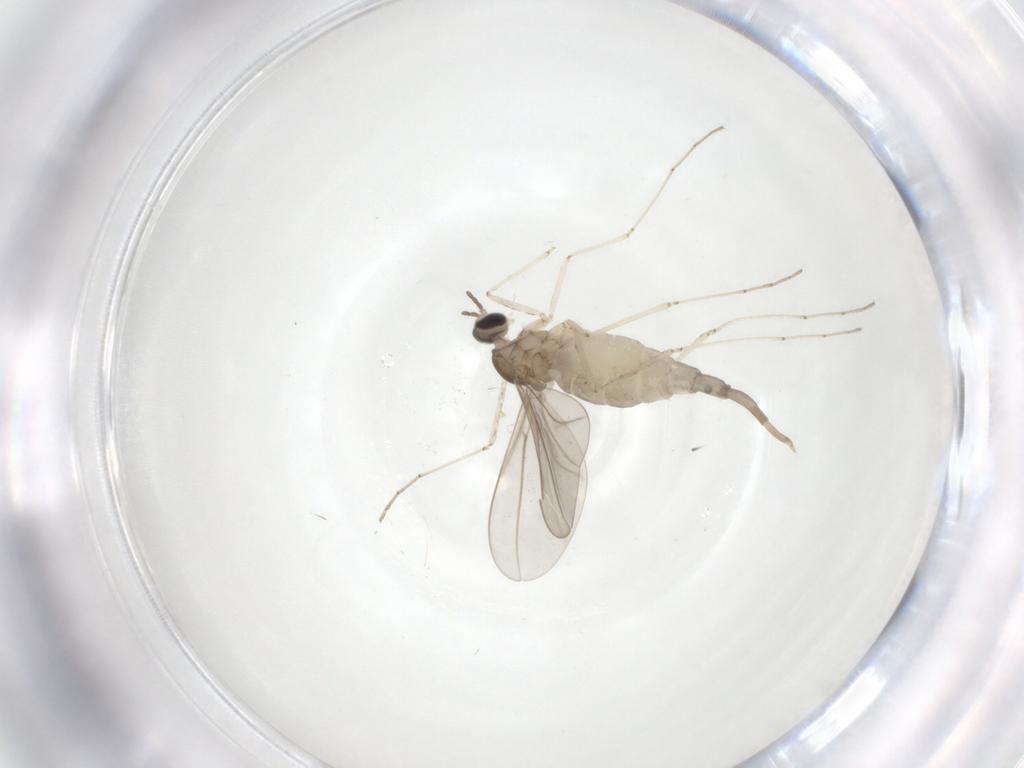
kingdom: Animalia
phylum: Arthropoda
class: Insecta
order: Diptera
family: Cecidomyiidae
